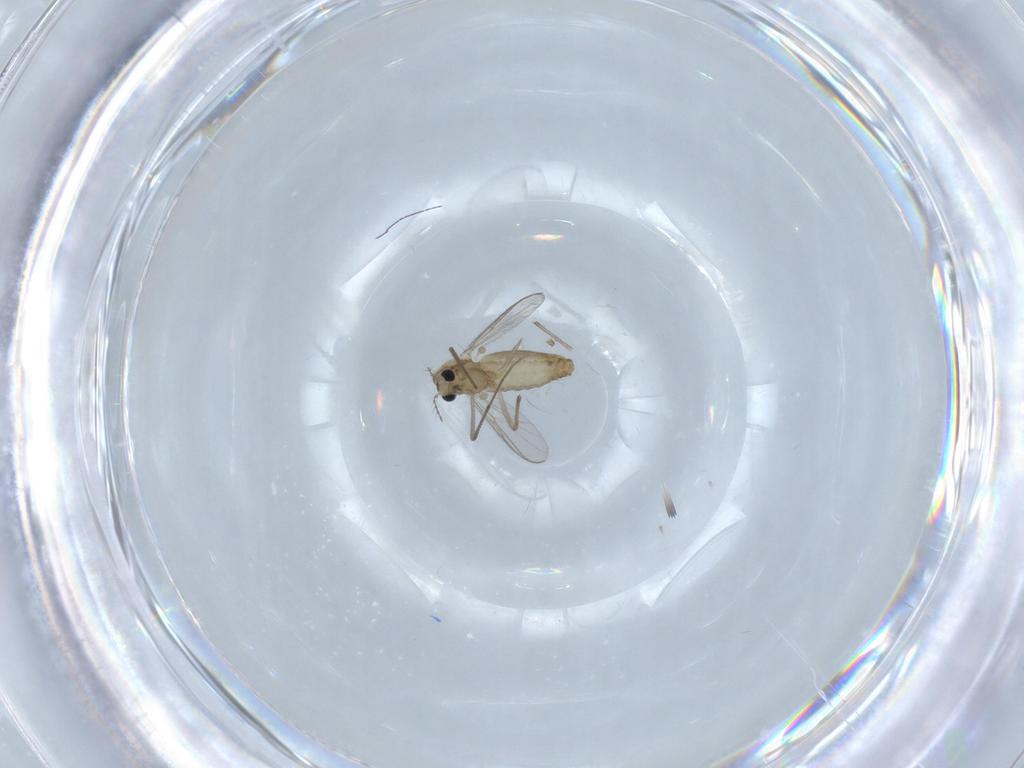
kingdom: Animalia
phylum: Arthropoda
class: Insecta
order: Diptera
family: Chironomidae
